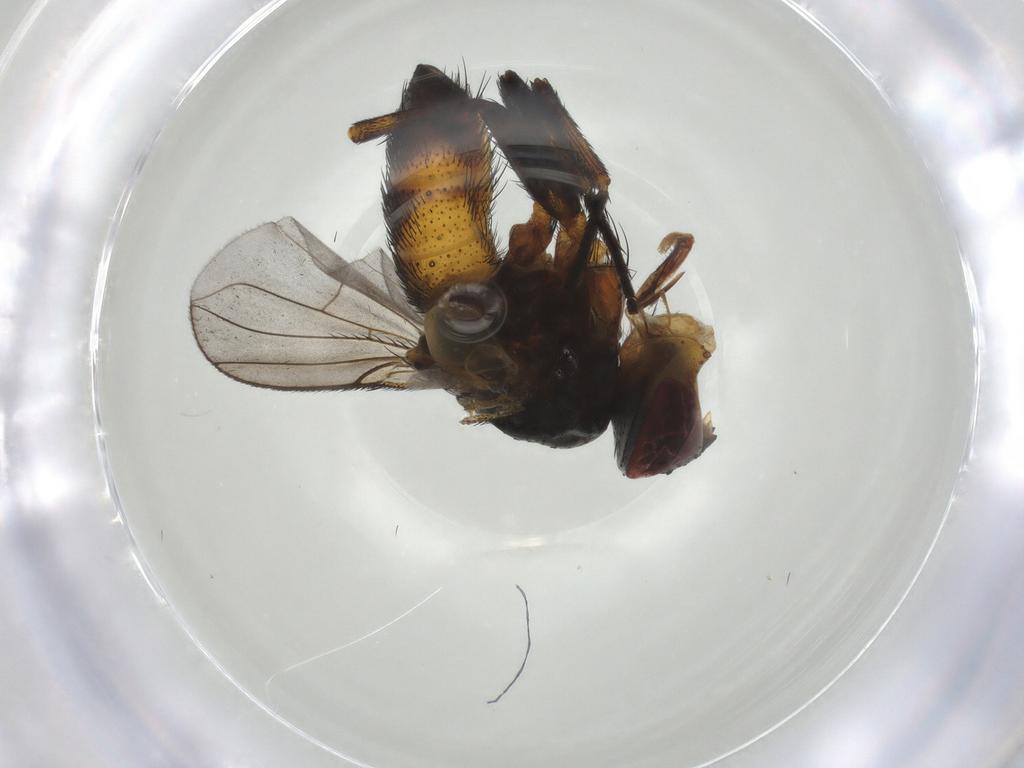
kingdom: Animalia
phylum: Arthropoda
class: Insecta
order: Diptera
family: Tachinidae
